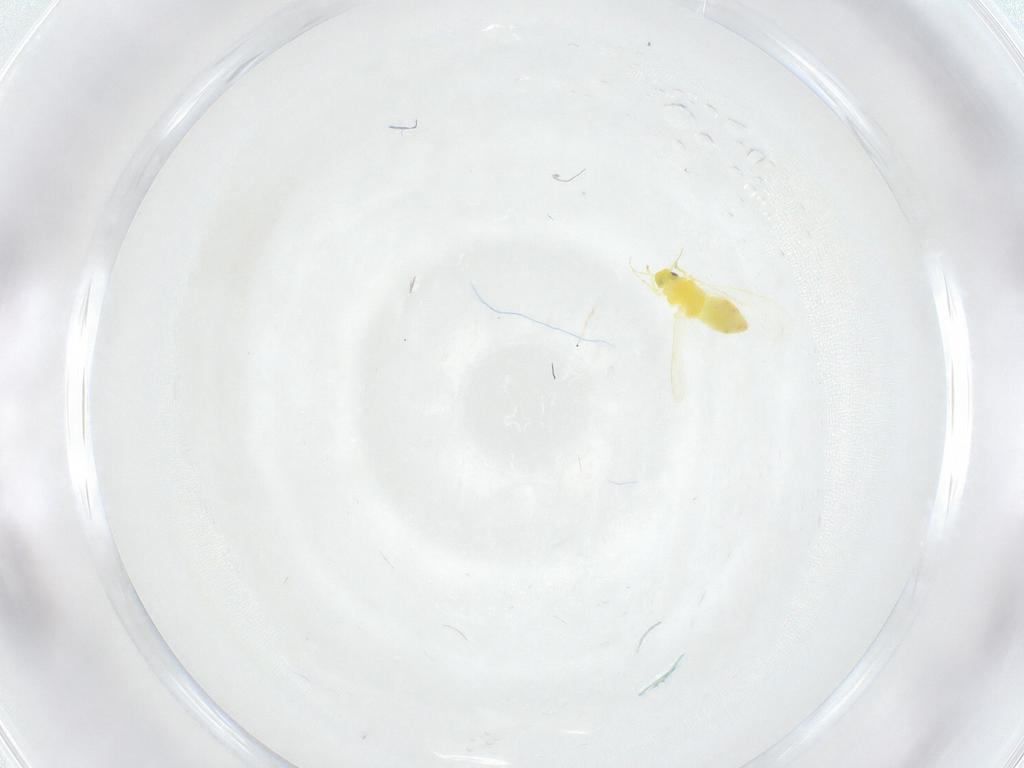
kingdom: Animalia
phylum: Arthropoda
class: Insecta
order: Hemiptera
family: Aleyrodidae
